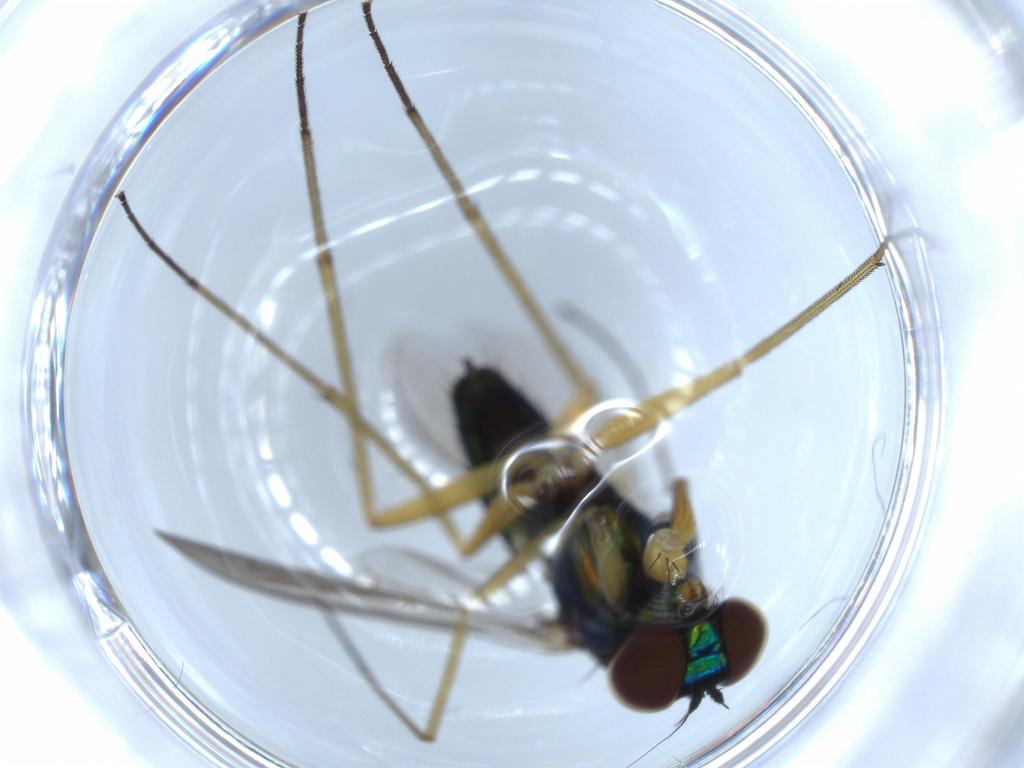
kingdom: Animalia
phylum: Arthropoda
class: Insecta
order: Diptera
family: Dolichopodidae
